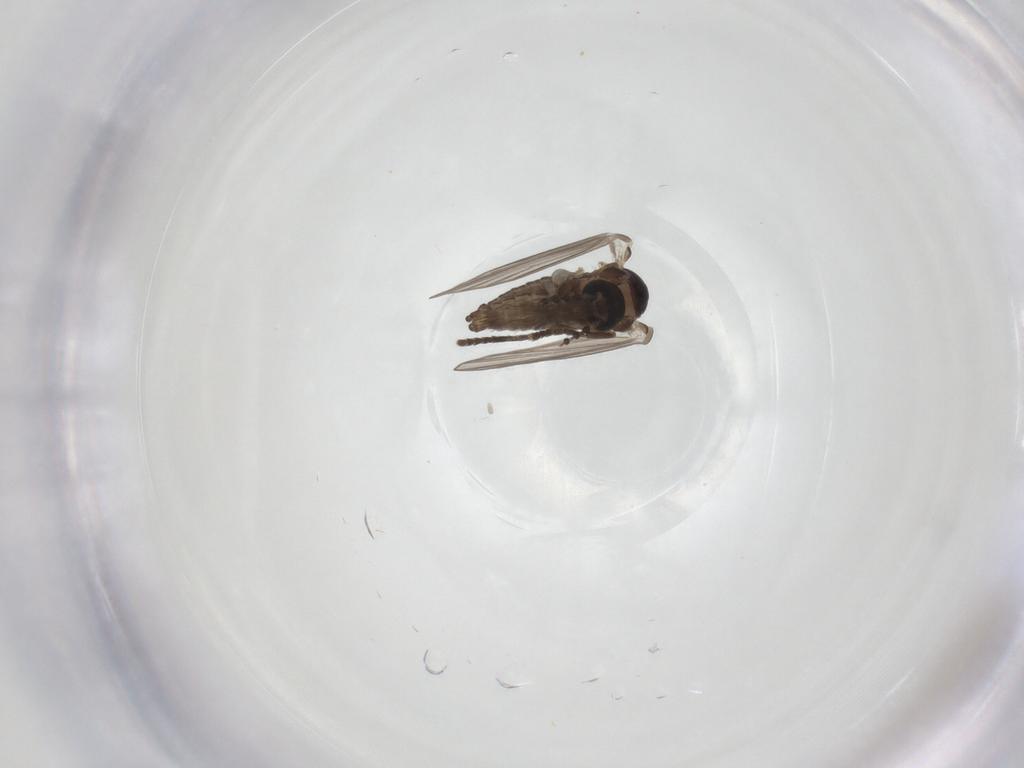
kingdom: Animalia
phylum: Arthropoda
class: Insecta
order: Diptera
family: Psychodidae
